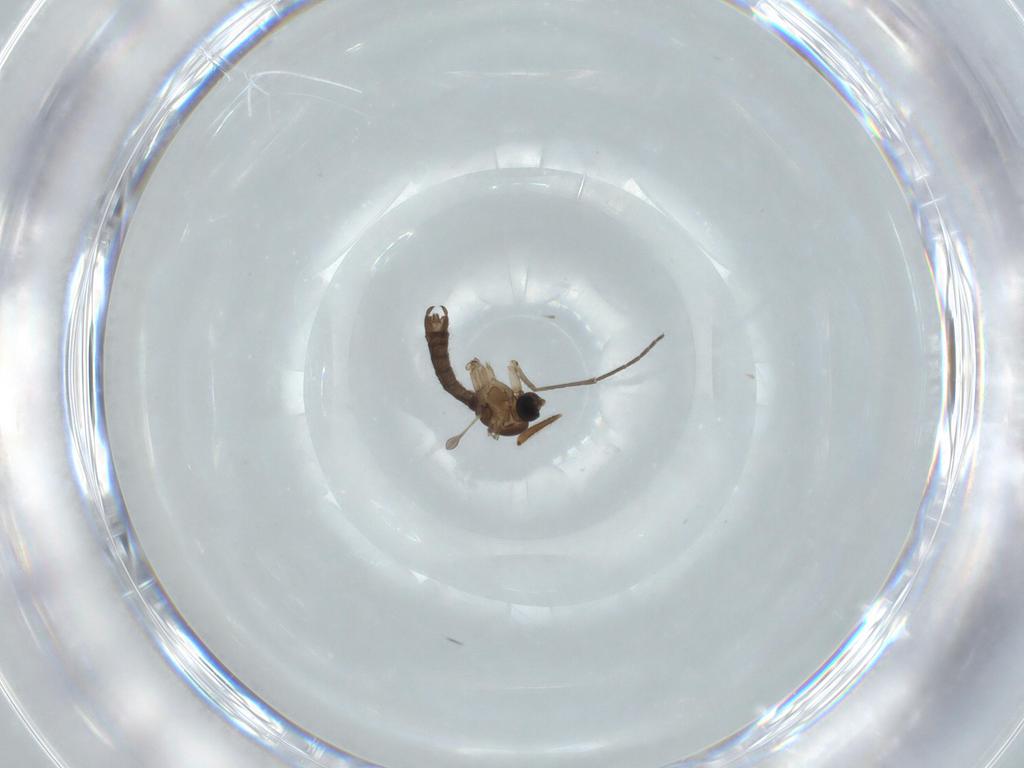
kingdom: Animalia
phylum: Arthropoda
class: Insecta
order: Diptera
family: Sciaridae
